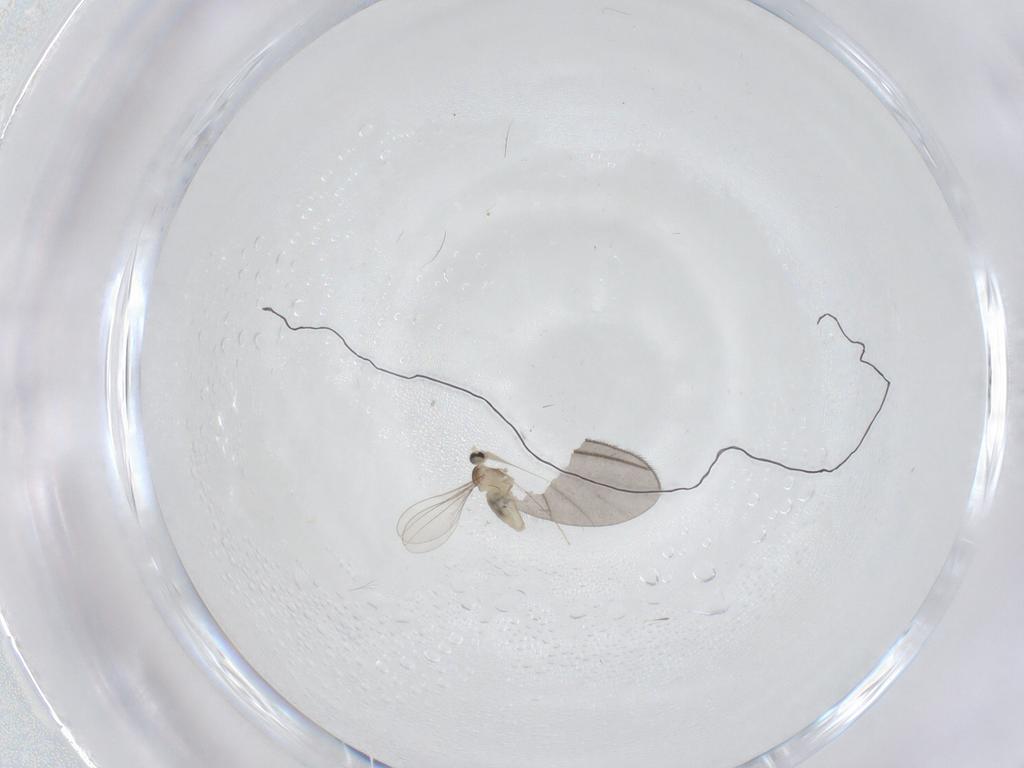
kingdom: Animalia
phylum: Arthropoda
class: Insecta
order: Diptera
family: Cecidomyiidae
